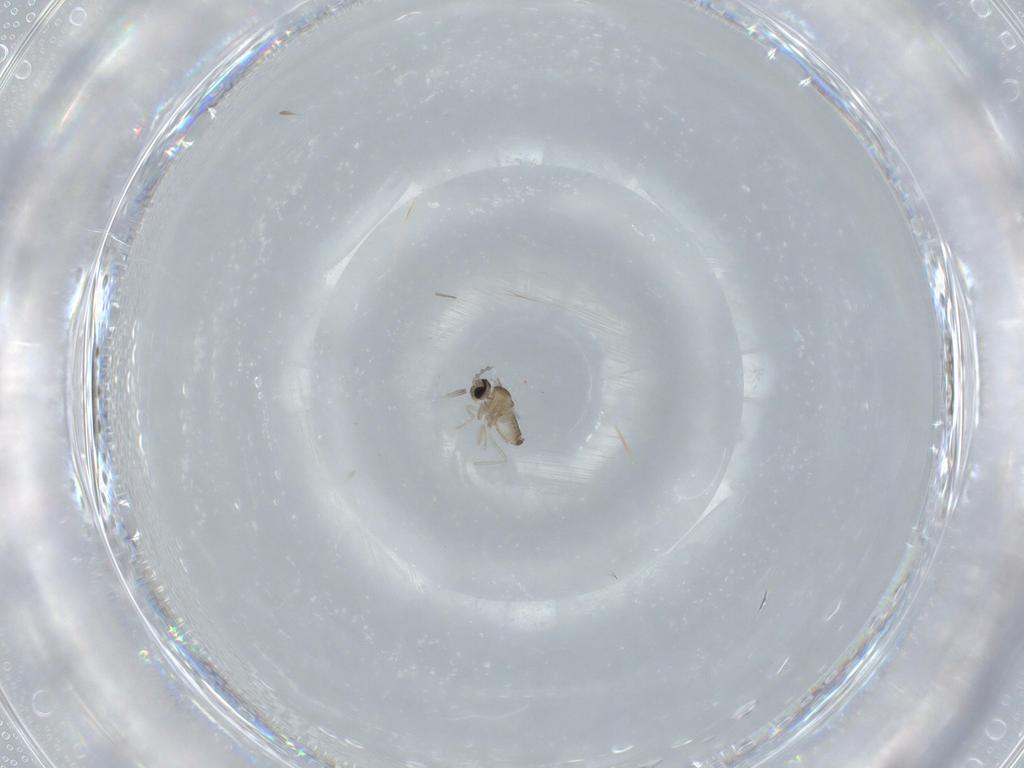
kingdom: Animalia
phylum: Arthropoda
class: Insecta
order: Diptera
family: Cecidomyiidae
